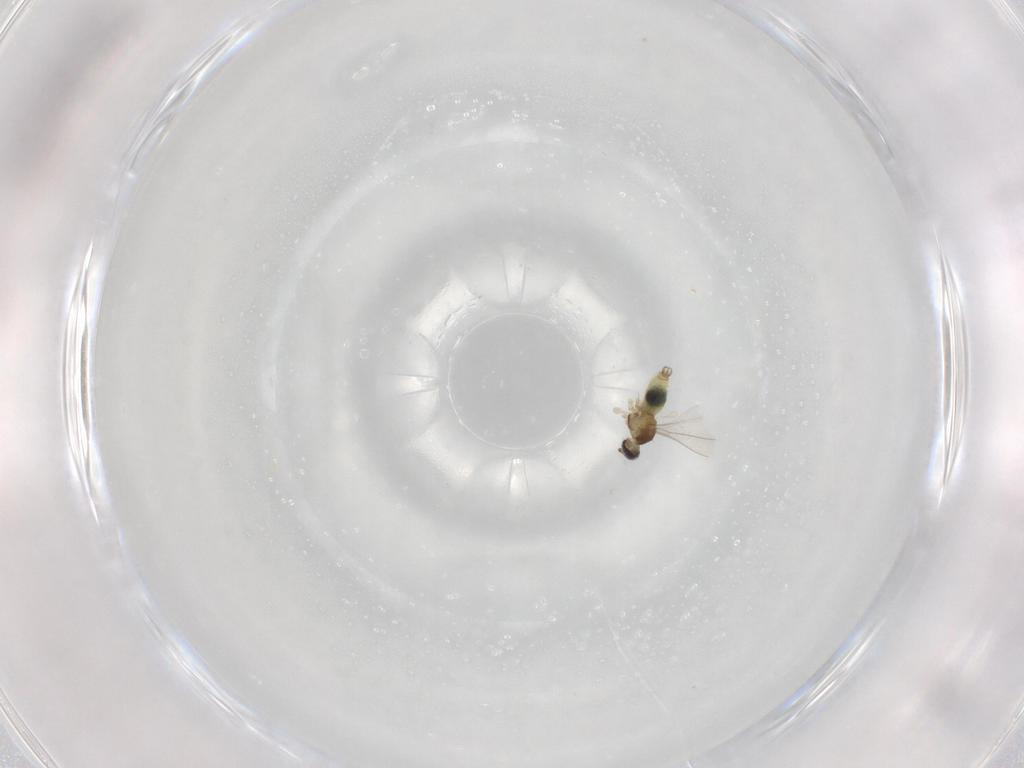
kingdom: Animalia
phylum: Arthropoda
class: Insecta
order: Diptera
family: Cecidomyiidae
